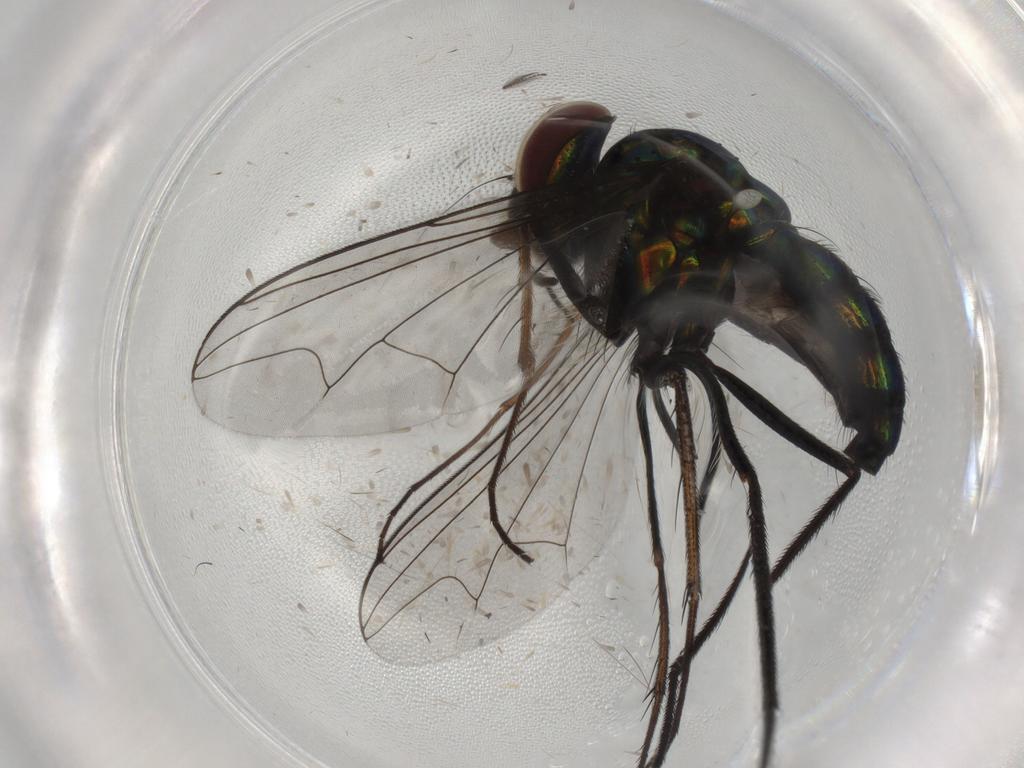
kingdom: Animalia
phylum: Arthropoda
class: Insecta
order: Diptera
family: Dolichopodidae
